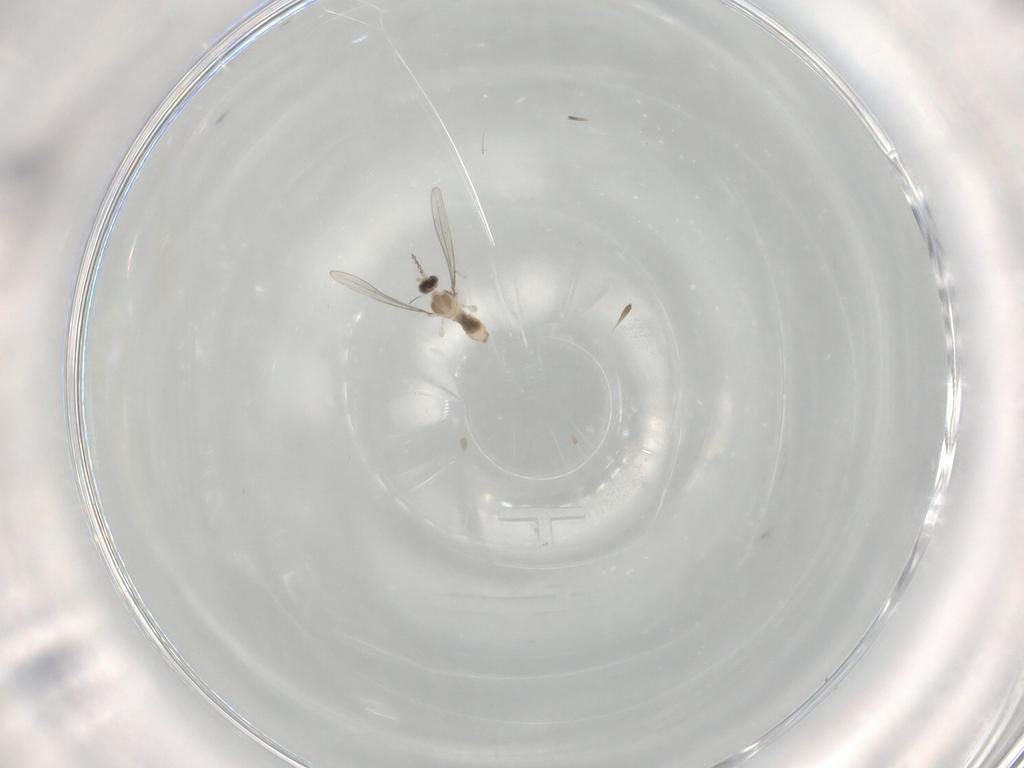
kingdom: Animalia
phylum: Arthropoda
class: Insecta
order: Diptera
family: Cecidomyiidae
